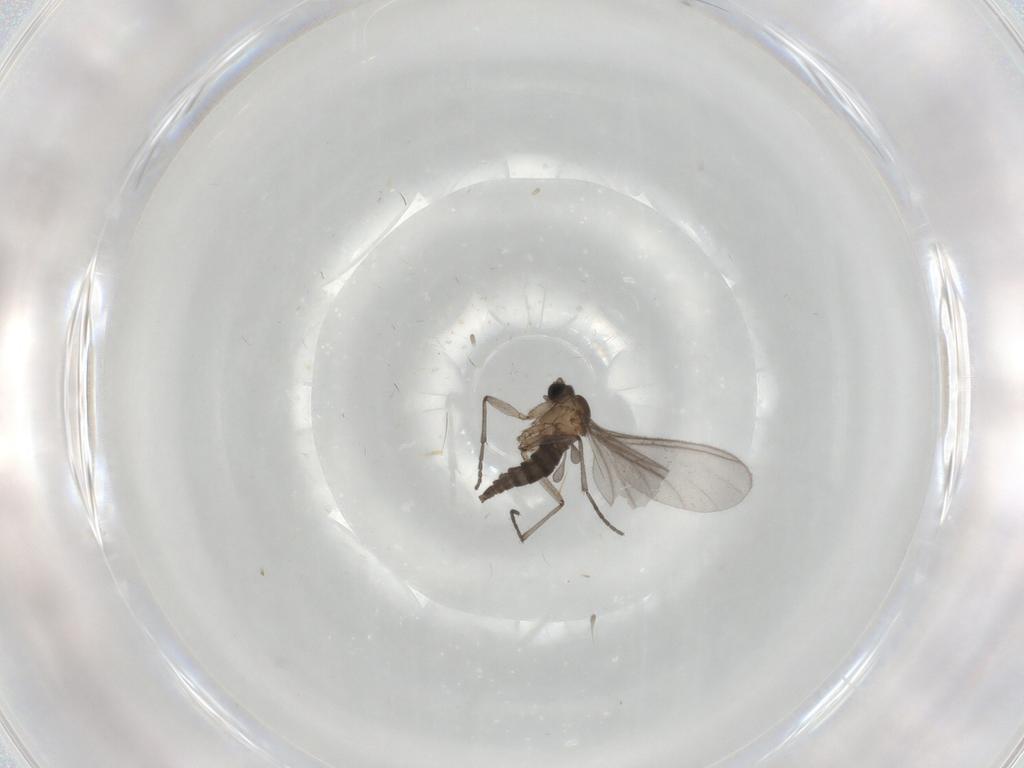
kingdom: Animalia
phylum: Arthropoda
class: Insecta
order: Diptera
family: Sciaridae
